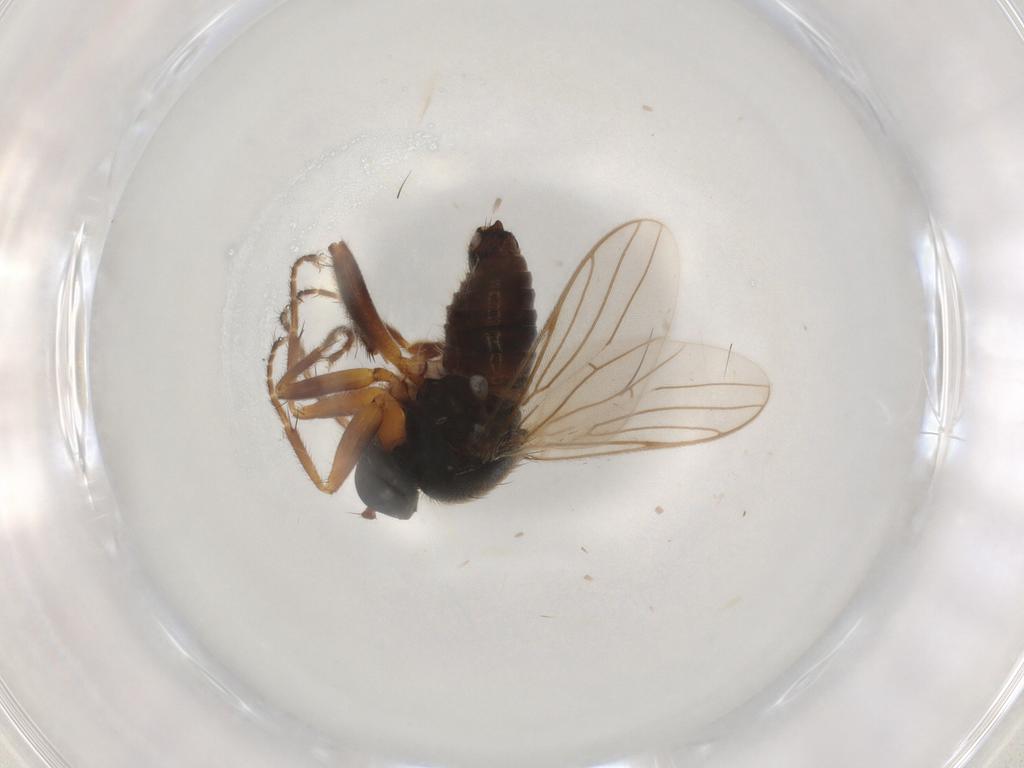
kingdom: Animalia
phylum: Arthropoda
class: Insecta
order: Diptera
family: Hybotidae
